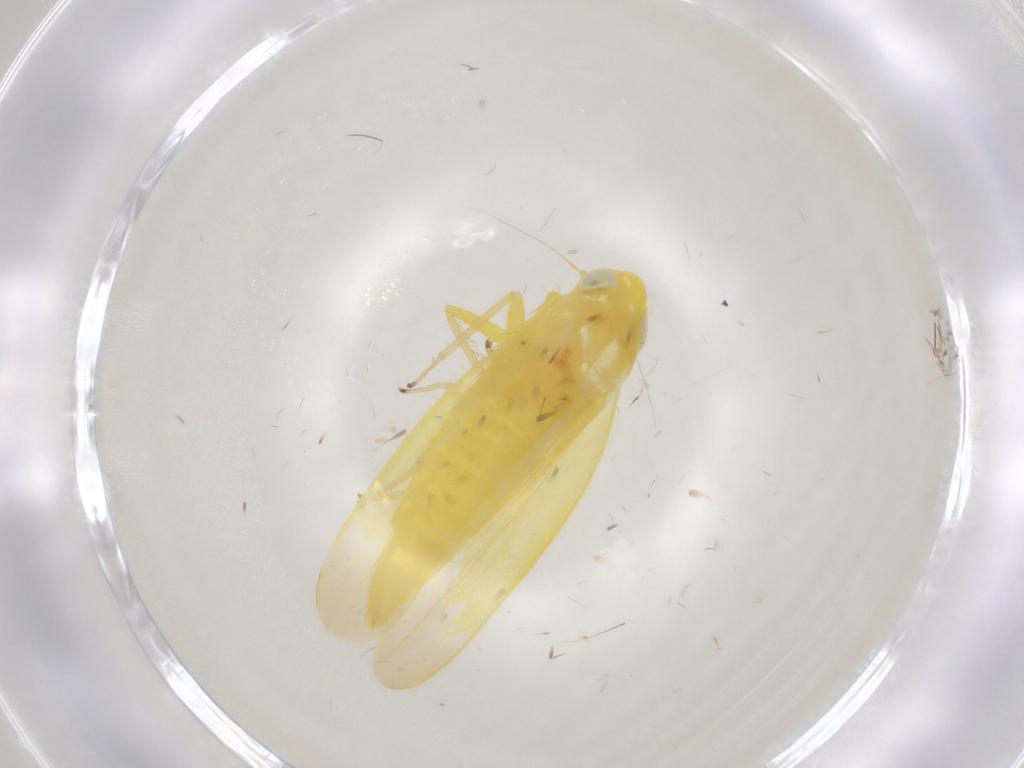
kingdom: Animalia
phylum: Arthropoda
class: Insecta
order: Hemiptera
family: Cicadellidae
